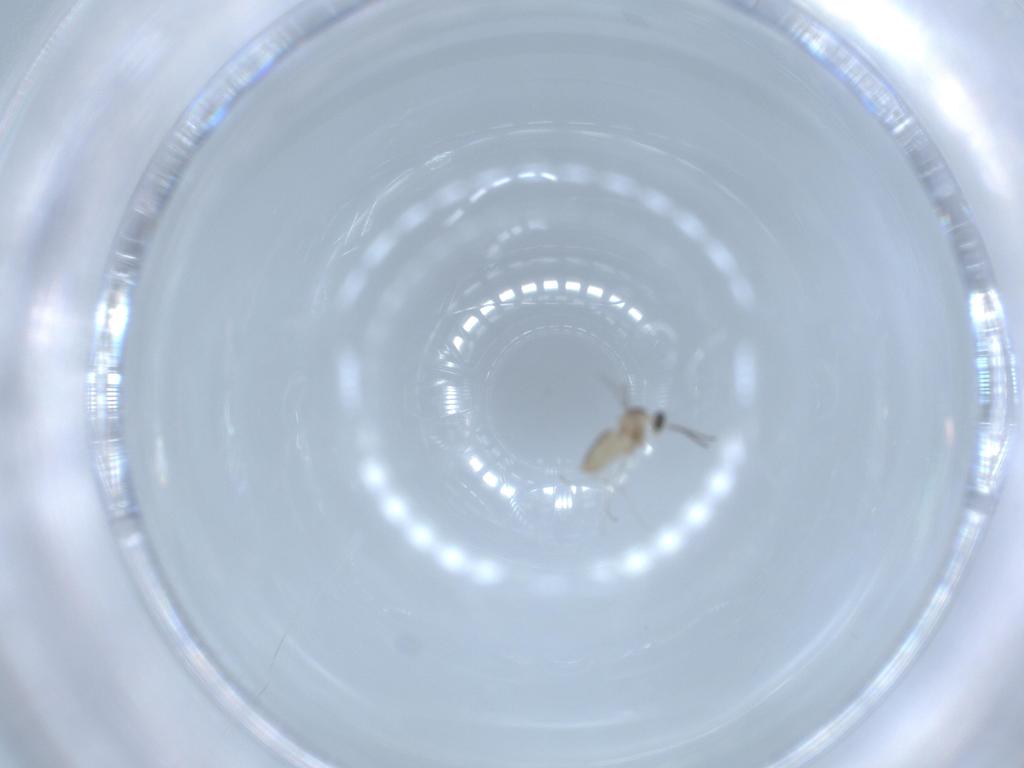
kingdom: Animalia
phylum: Arthropoda
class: Insecta
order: Diptera
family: Cecidomyiidae
